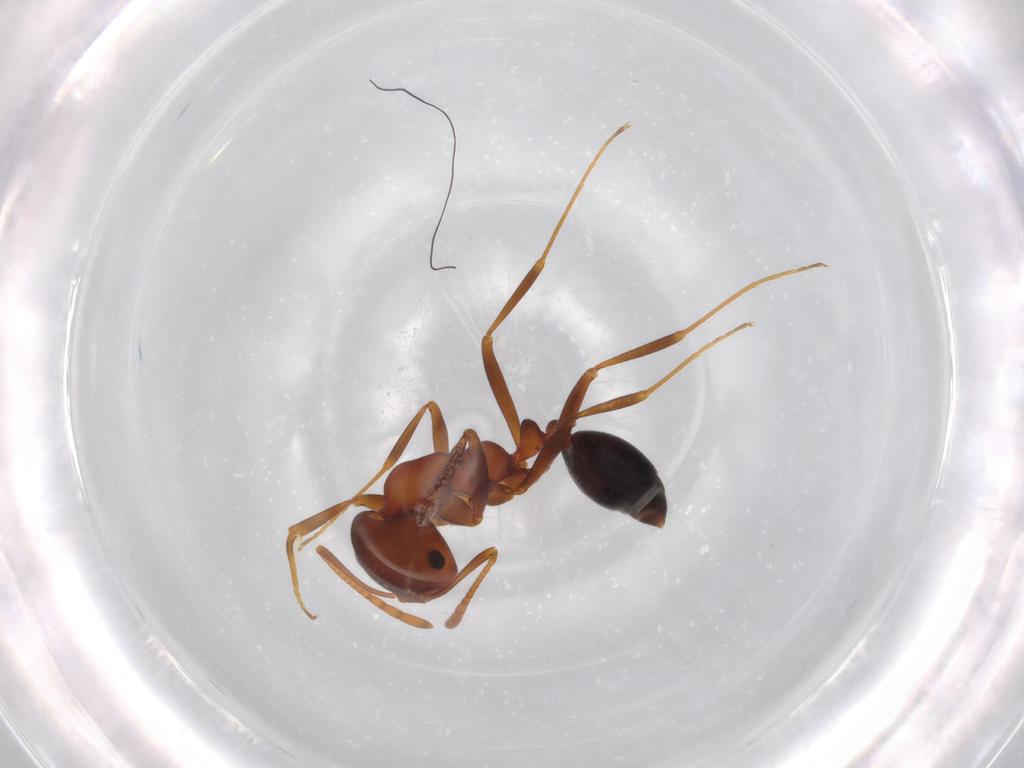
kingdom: Animalia
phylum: Arthropoda
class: Insecta
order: Hymenoptera
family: Formicidae
